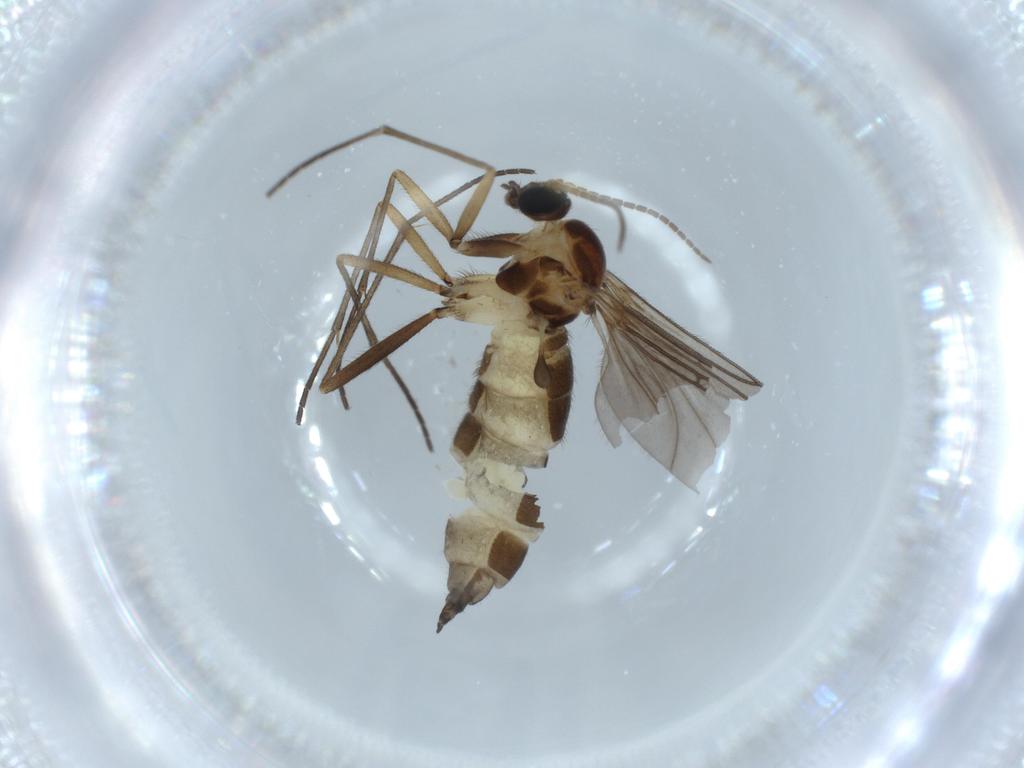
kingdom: Animalia
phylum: Arthropoda
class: Insecta
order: Diptera
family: Sciaridae
